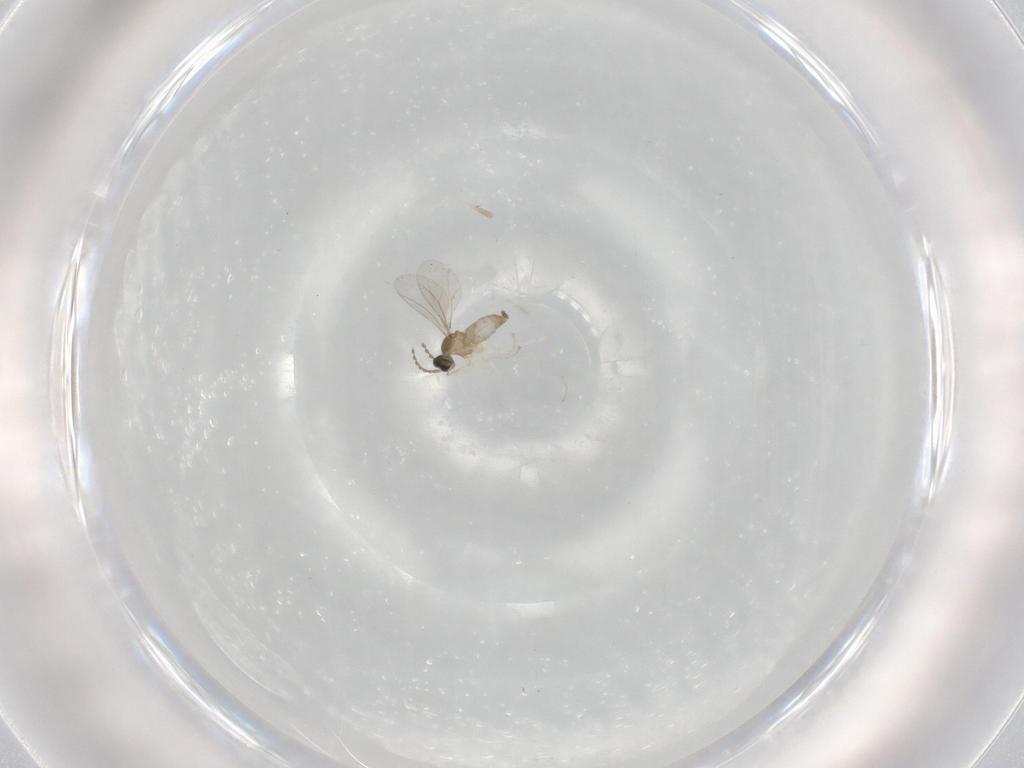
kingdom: Animalia
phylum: Arthropoda
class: Insecta
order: Diptera
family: Cecidomyiidae
